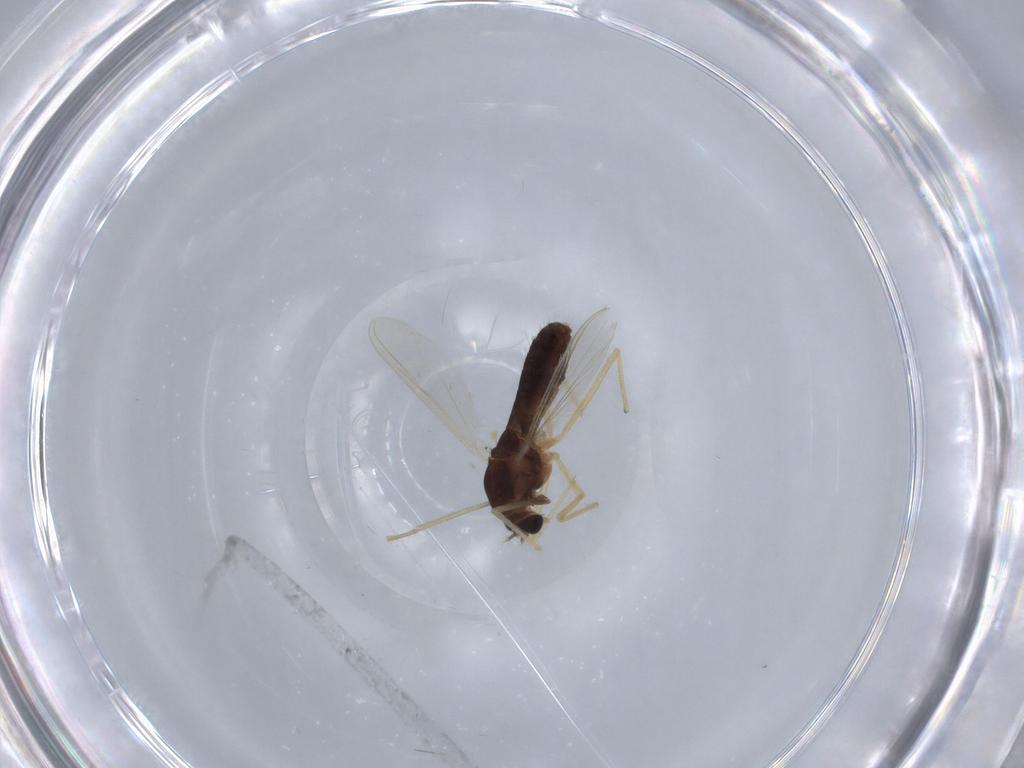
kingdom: Animalia
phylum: Arthropoda
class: Insecta
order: Diptera
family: Chironomidae
